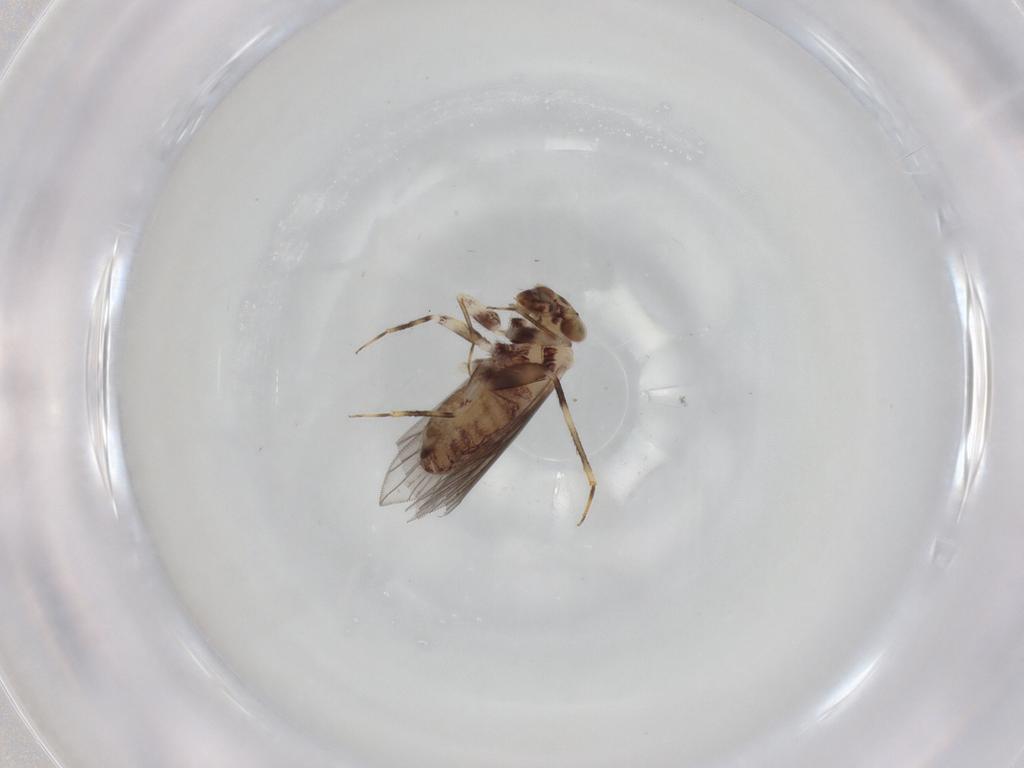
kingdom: Animalia
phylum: Arthropoda
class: Insecta
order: Psocodea
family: Lepidopsocidae
